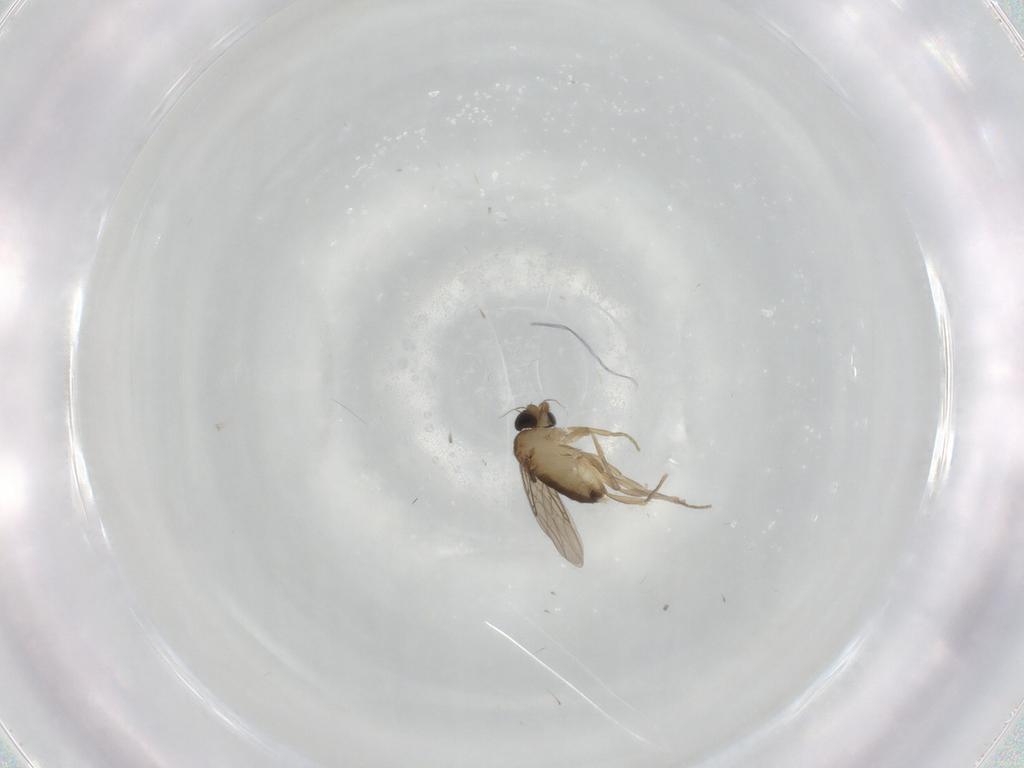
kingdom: Animalia
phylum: Arthropoda
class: Insecta
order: Diptera
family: Phoridae
